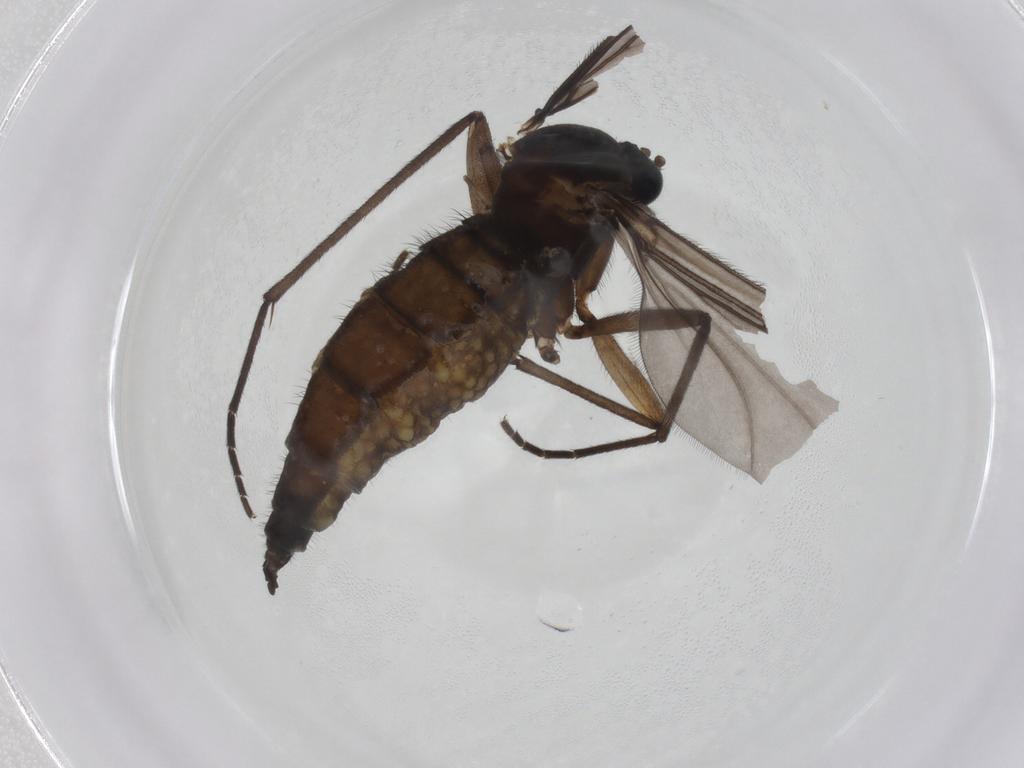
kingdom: Animalia
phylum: Arthropoda
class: Insecta
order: Diptera
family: Sciaridae
